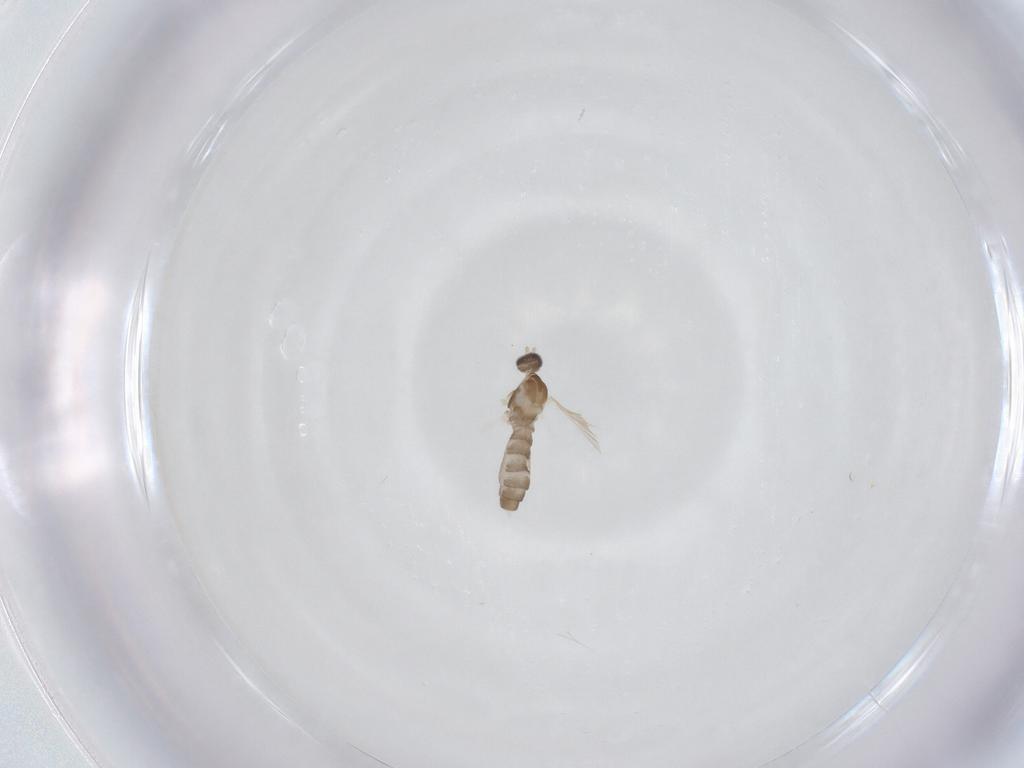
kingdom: Animalia
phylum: Arthropoda
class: Insecta
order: Diptera
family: Cecidomyiidae
